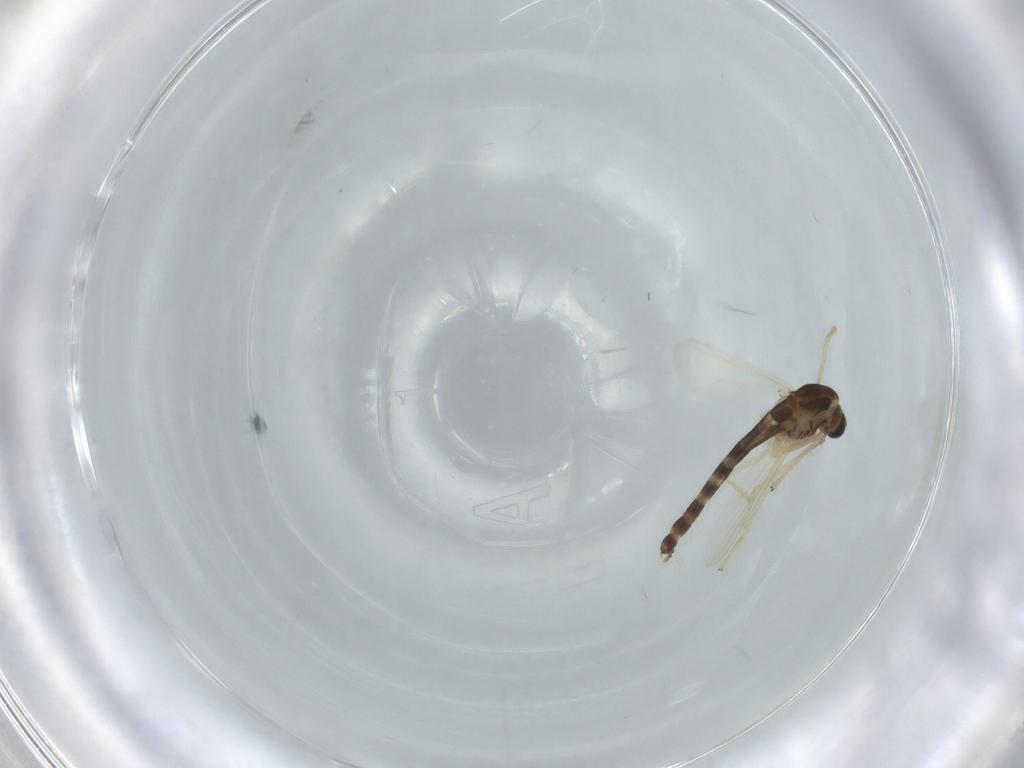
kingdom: Animalia
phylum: Arthropoda
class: Insecta
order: Diptera
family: Chironomidae
